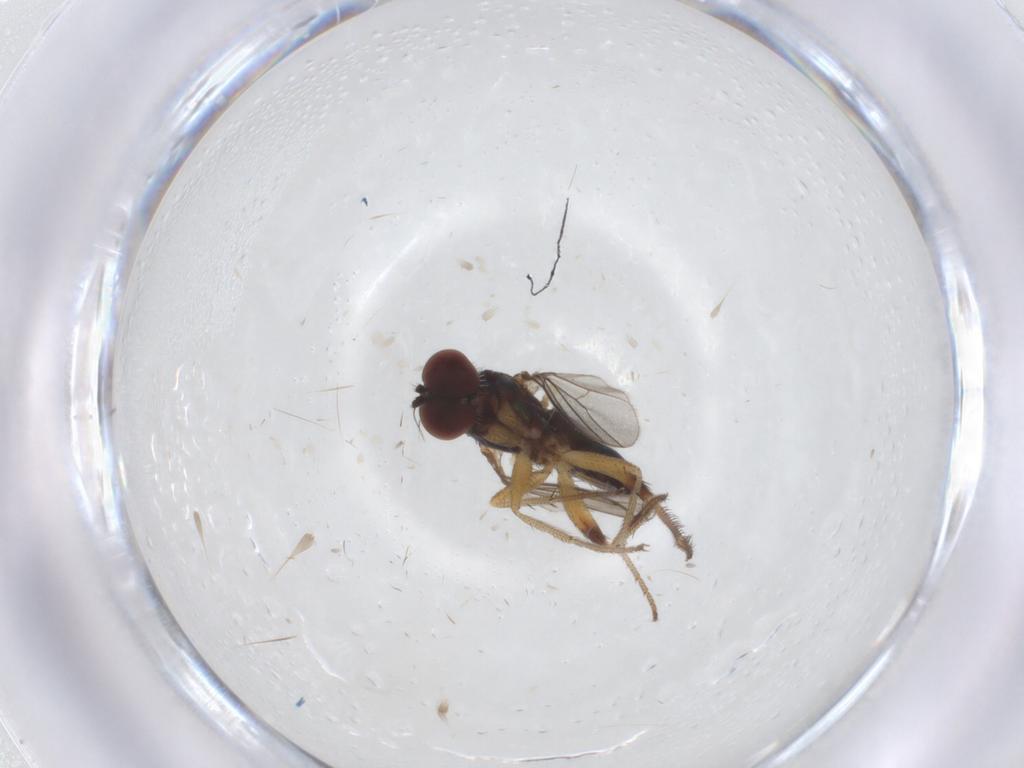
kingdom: Animalia
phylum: Arthropoda
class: Insecta
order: Diptera
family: Dolichopodidae
